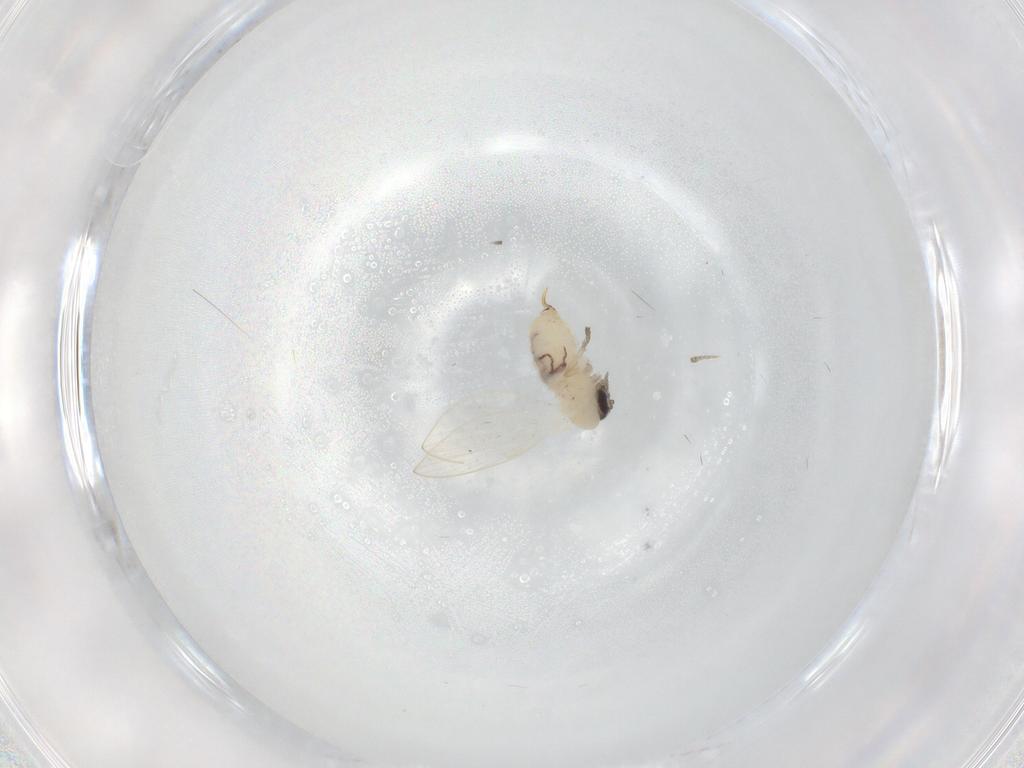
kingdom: Animalia
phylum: Arthropoda
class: Insecta
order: Diptera
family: Psychodidae
